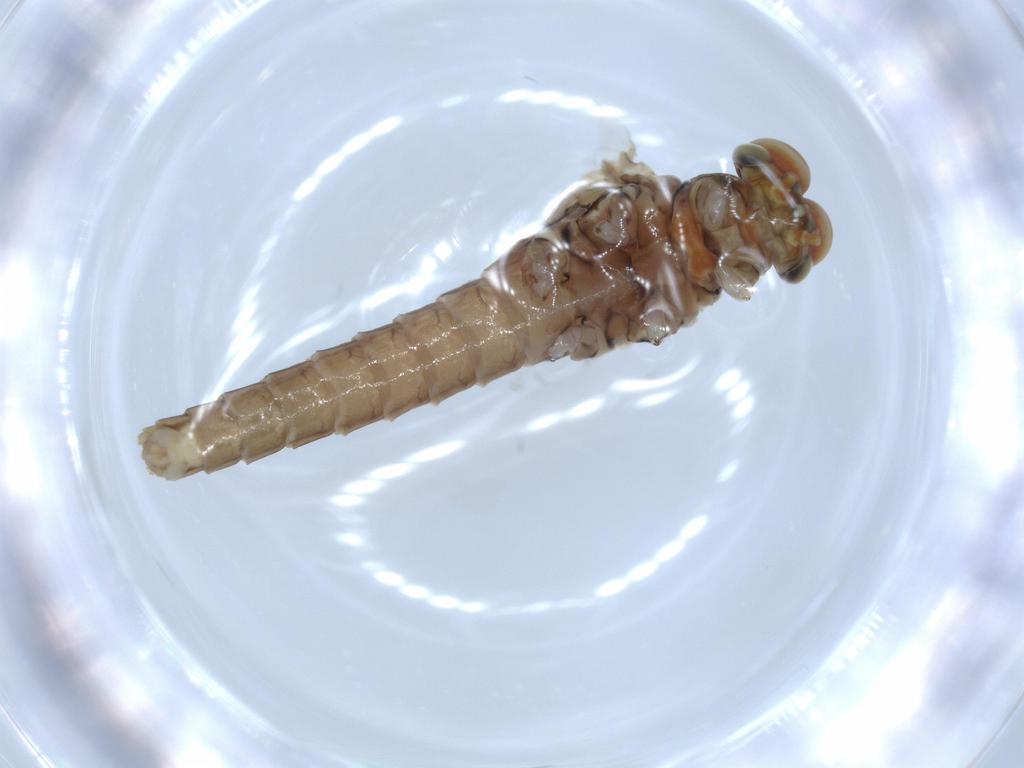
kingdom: Animalia
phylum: Arthropoda
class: Insecta
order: Ephemeroptera
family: Baetidae
